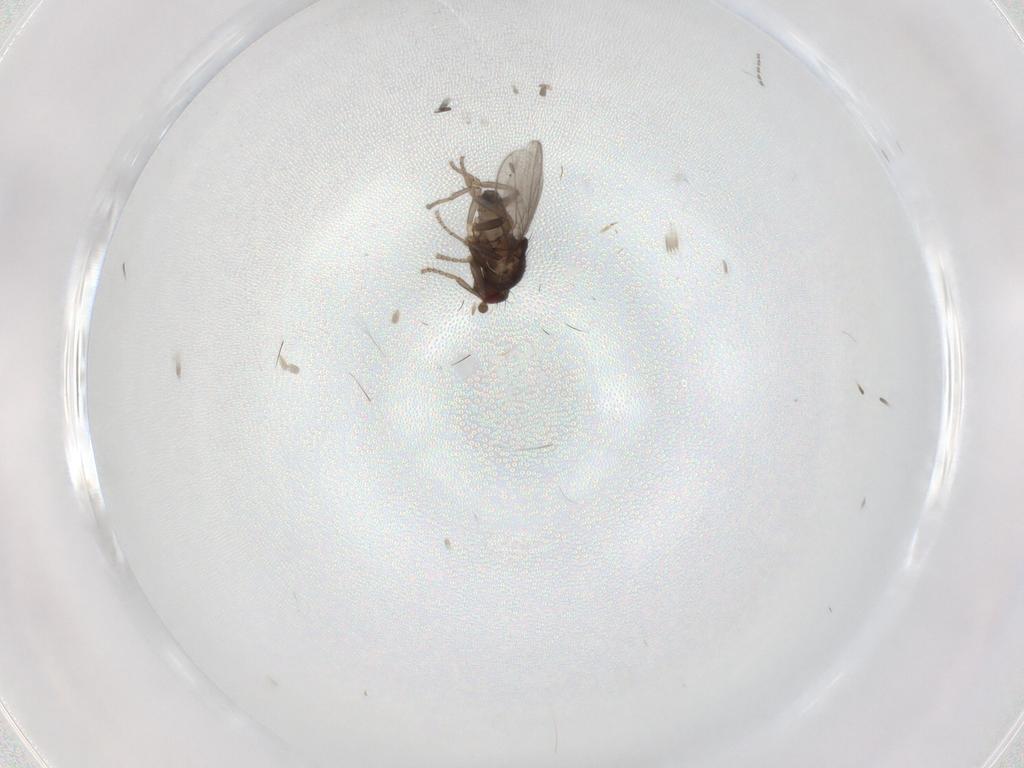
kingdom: Animalia
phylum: Arthropoda
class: Insecta
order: Diptera
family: Sphaeroceridae
